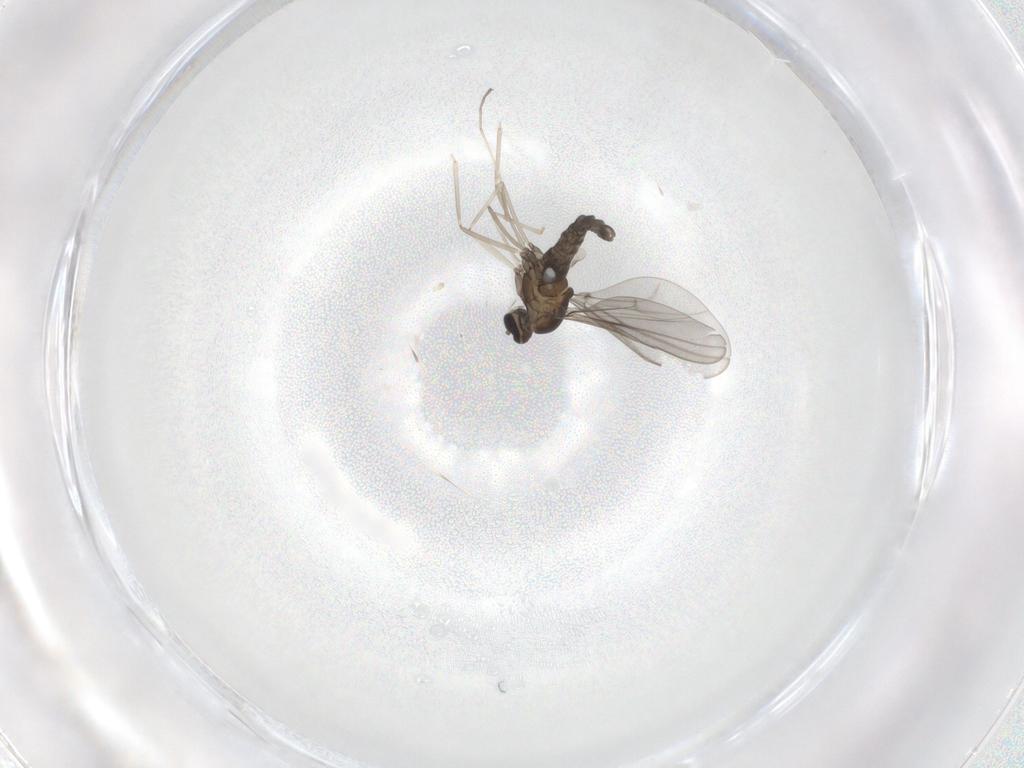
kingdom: Animalia
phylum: Arthropoda
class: Insecta
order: Diptera
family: Cecidomyiidae
